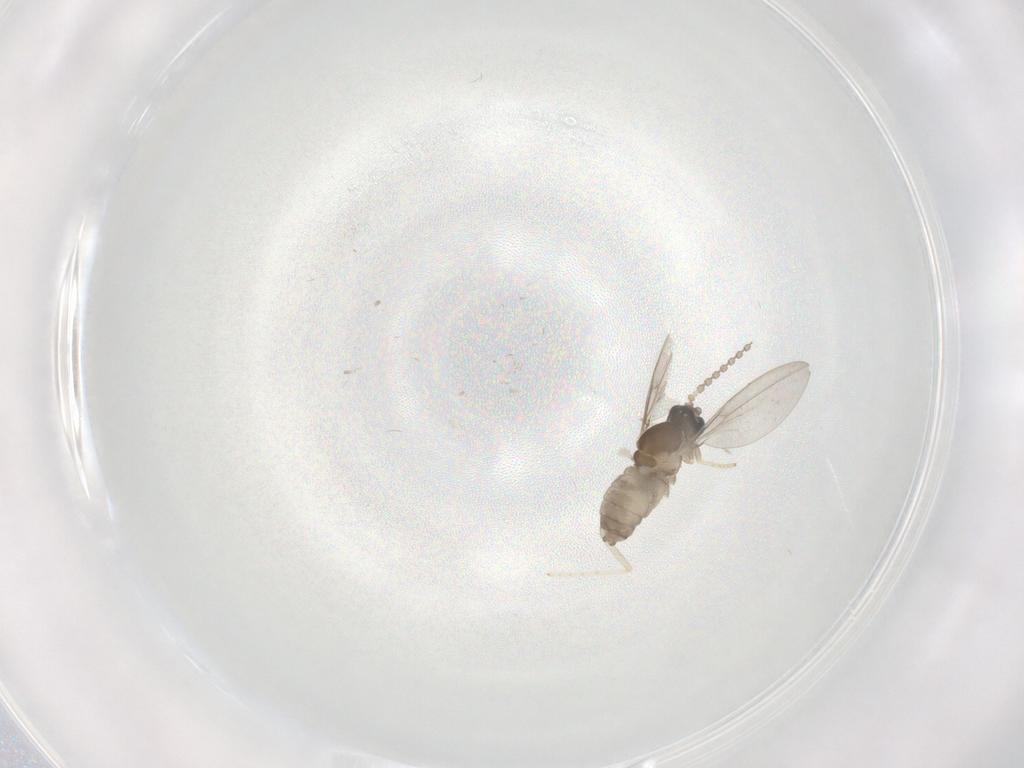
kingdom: Animalia
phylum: Arthropoda
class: Insecta
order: Diptera
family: Cecidomyiidae
